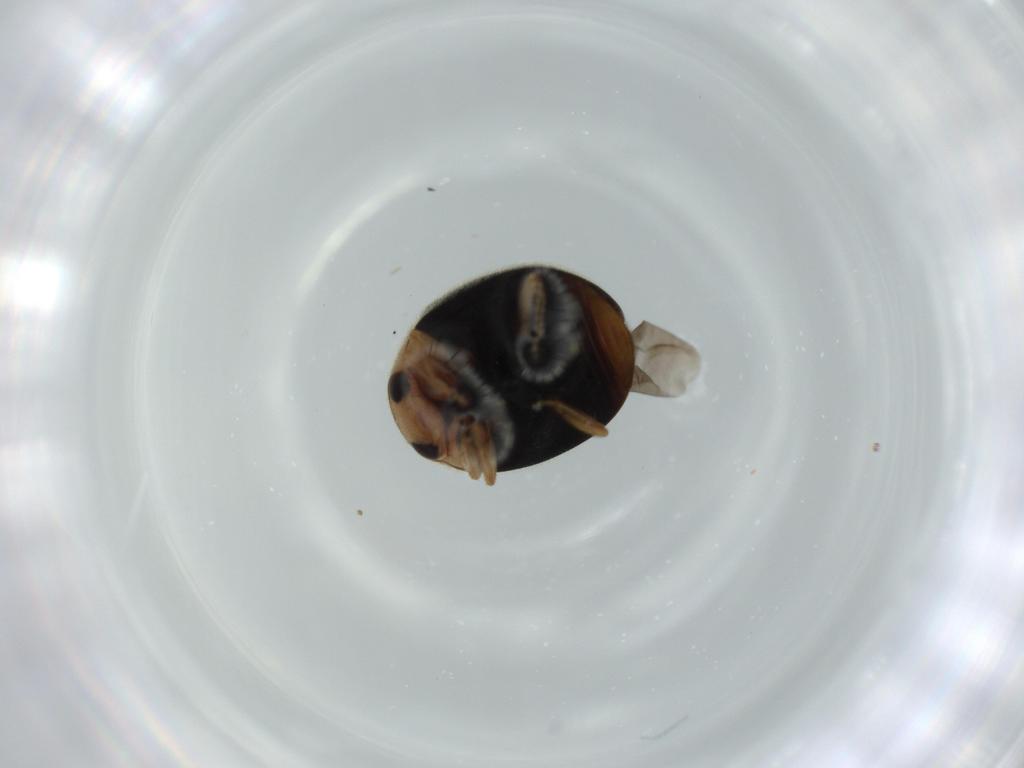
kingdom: Animalia
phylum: Arthropoda
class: Insecta
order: Coleoptera
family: Coccinellidae
